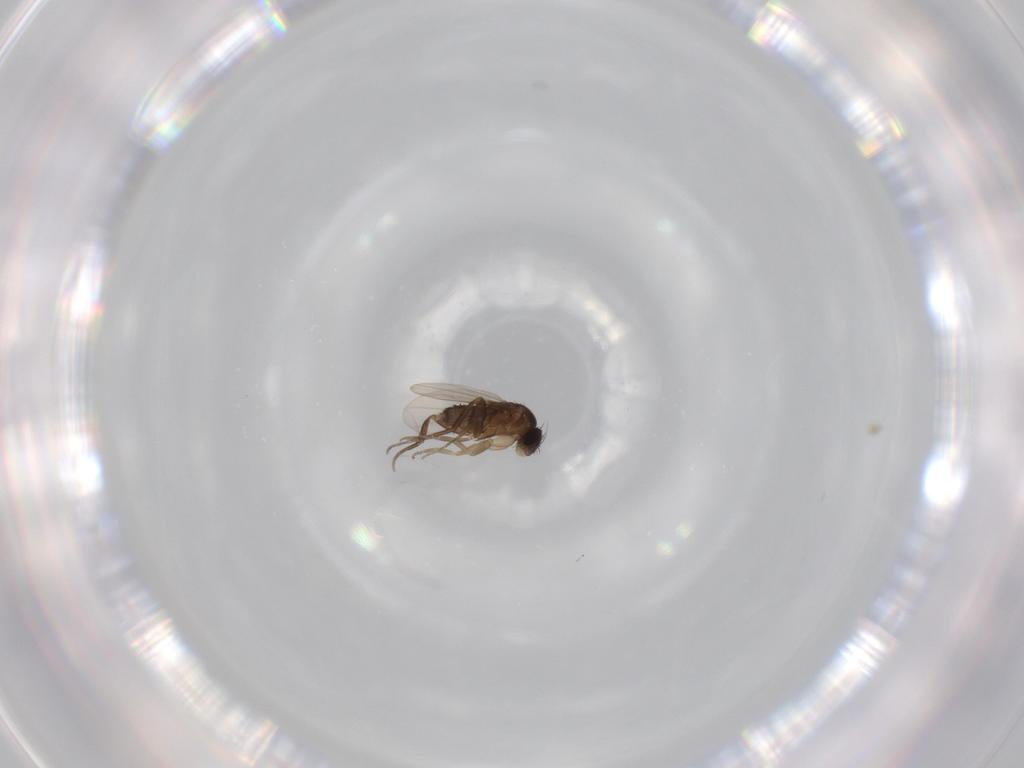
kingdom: Animalia
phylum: Arthropoda
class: Insecta
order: Diptera
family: Phoridae
